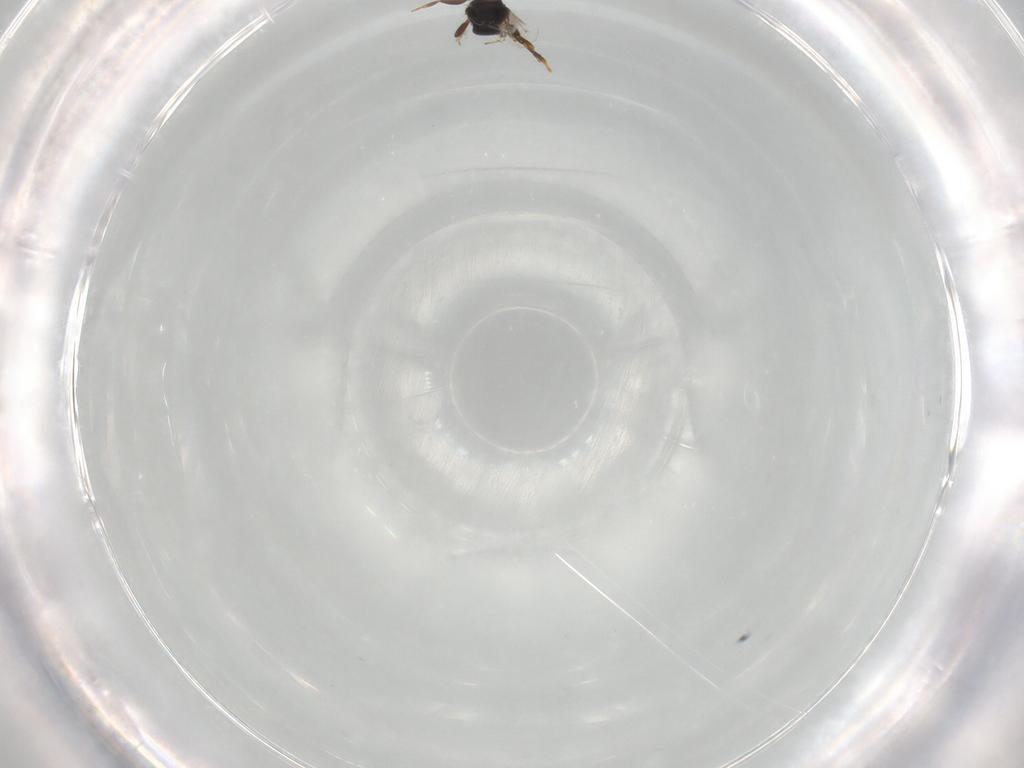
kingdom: Animalia
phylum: Arthropoda
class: Insecta
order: Hymenoptera
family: Bethylidae
